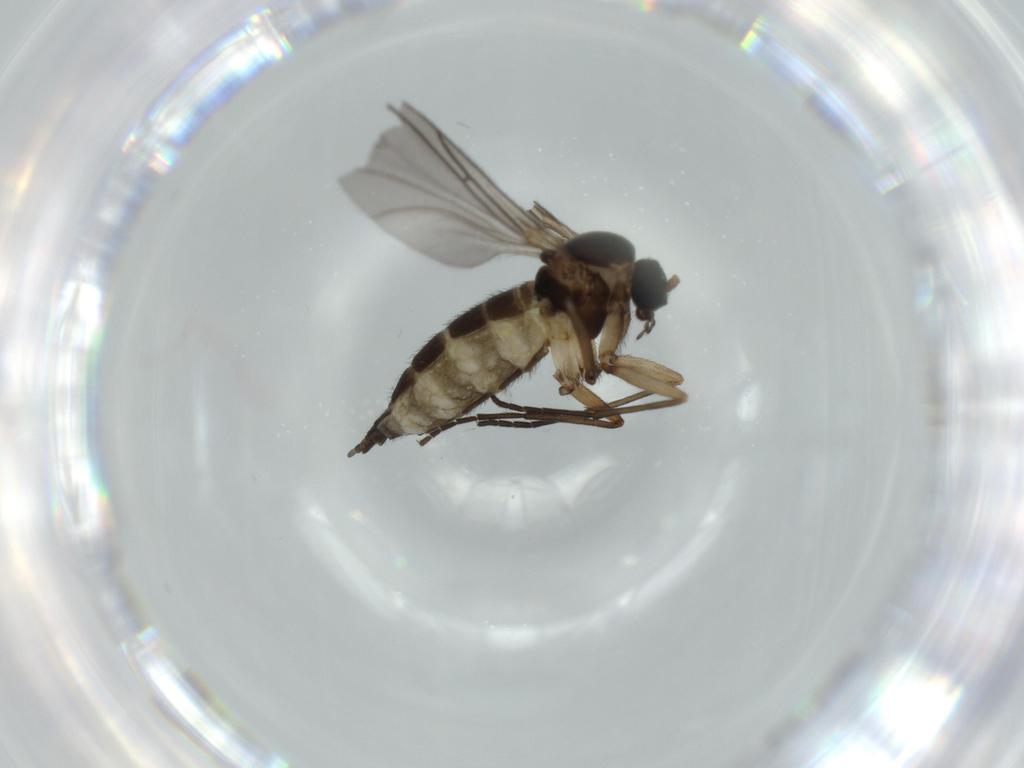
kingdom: Animalia
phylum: Arthropoda
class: Insecta
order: Diptera
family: Sciaridae
